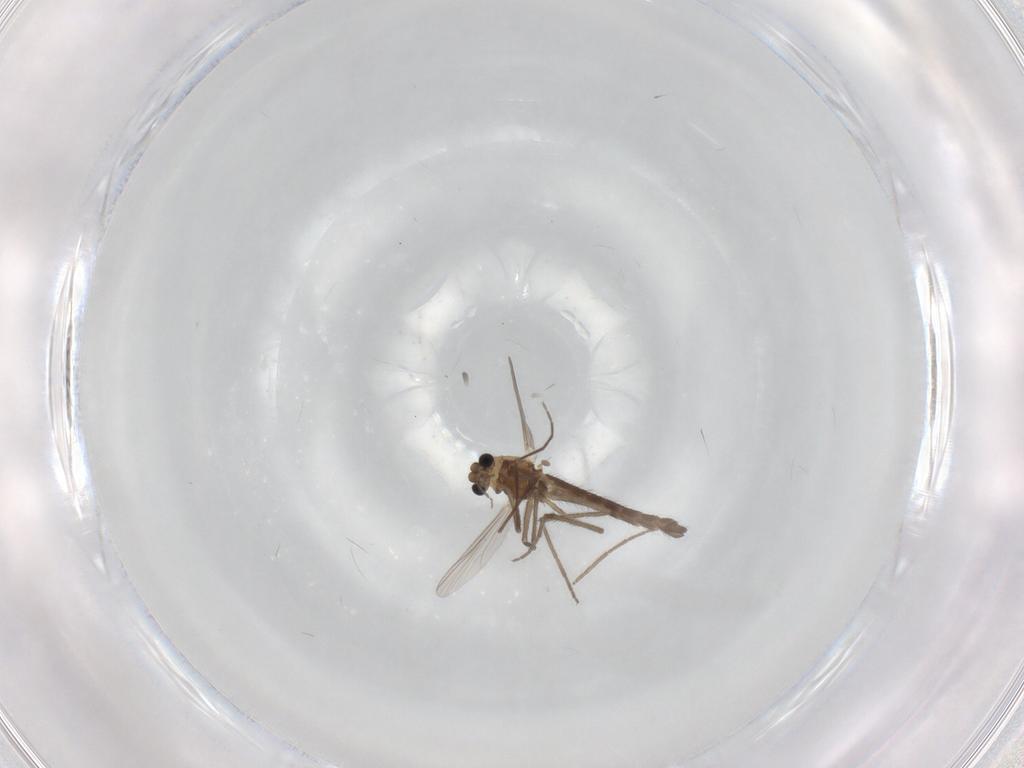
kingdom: Animalia
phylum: Arthropoda
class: Insecta
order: Diptera
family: Chironomidae
